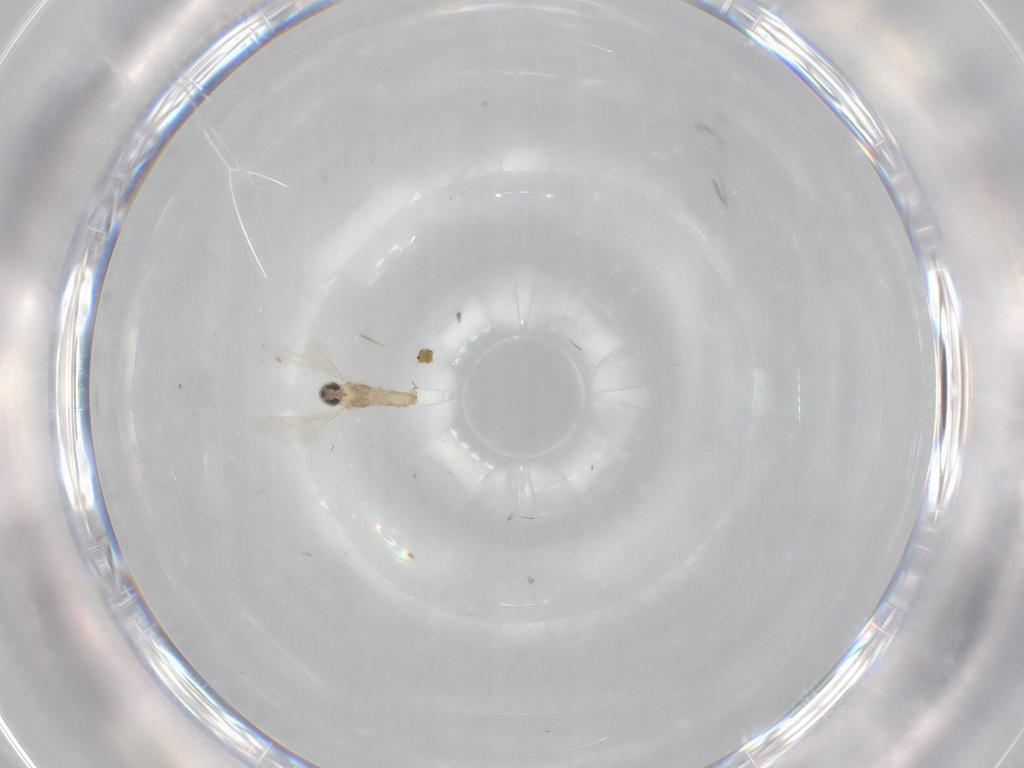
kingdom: Animalia
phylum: Arthropoda
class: Insecta
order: Diptera
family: Cecidomyiidae
